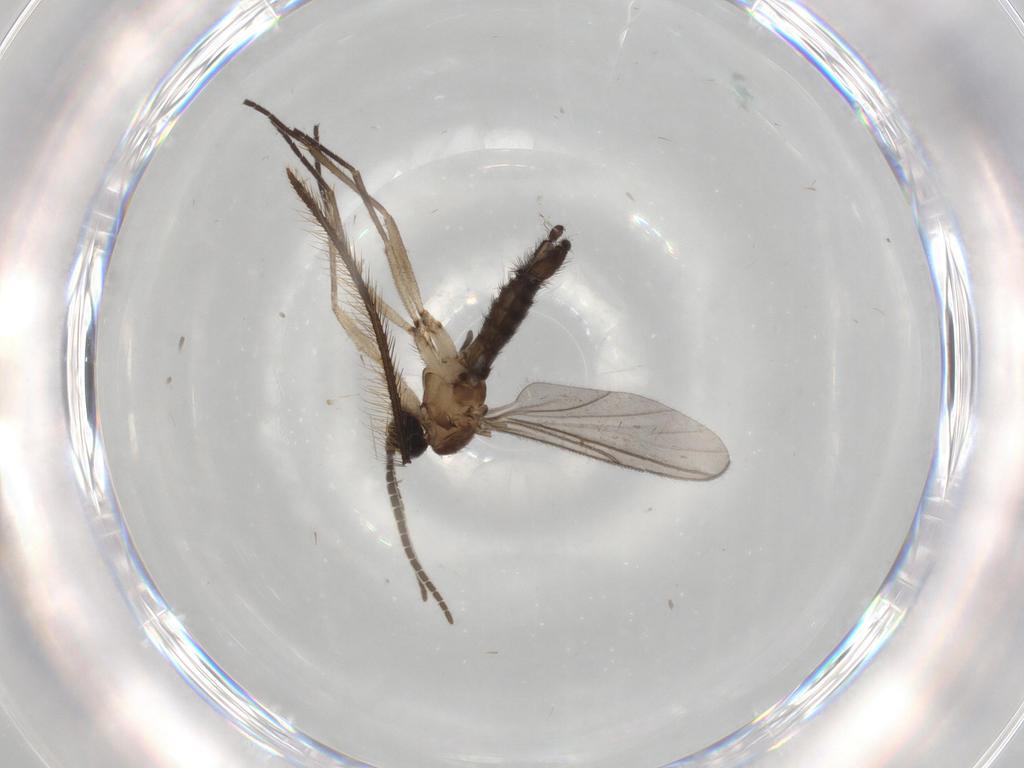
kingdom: Animalia
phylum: Arthropoda
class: Insecta
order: Diptera
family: Sciaridae
